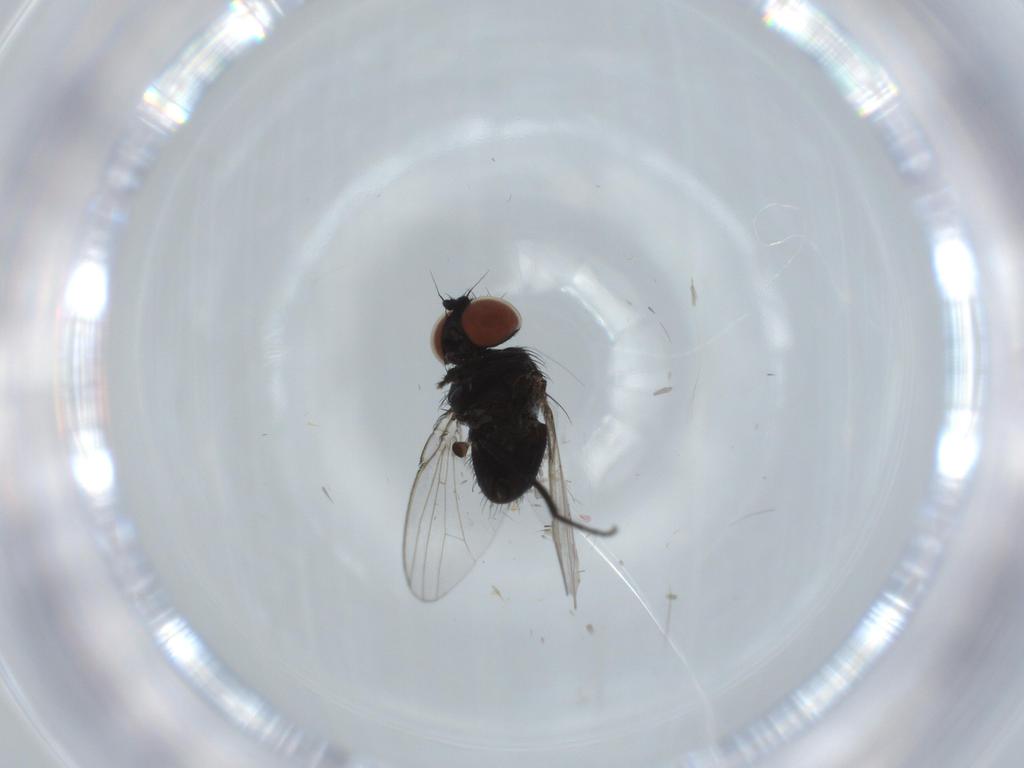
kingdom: Animalia
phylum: Arthropoda
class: Insecta
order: Diptera
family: Milichiidae
